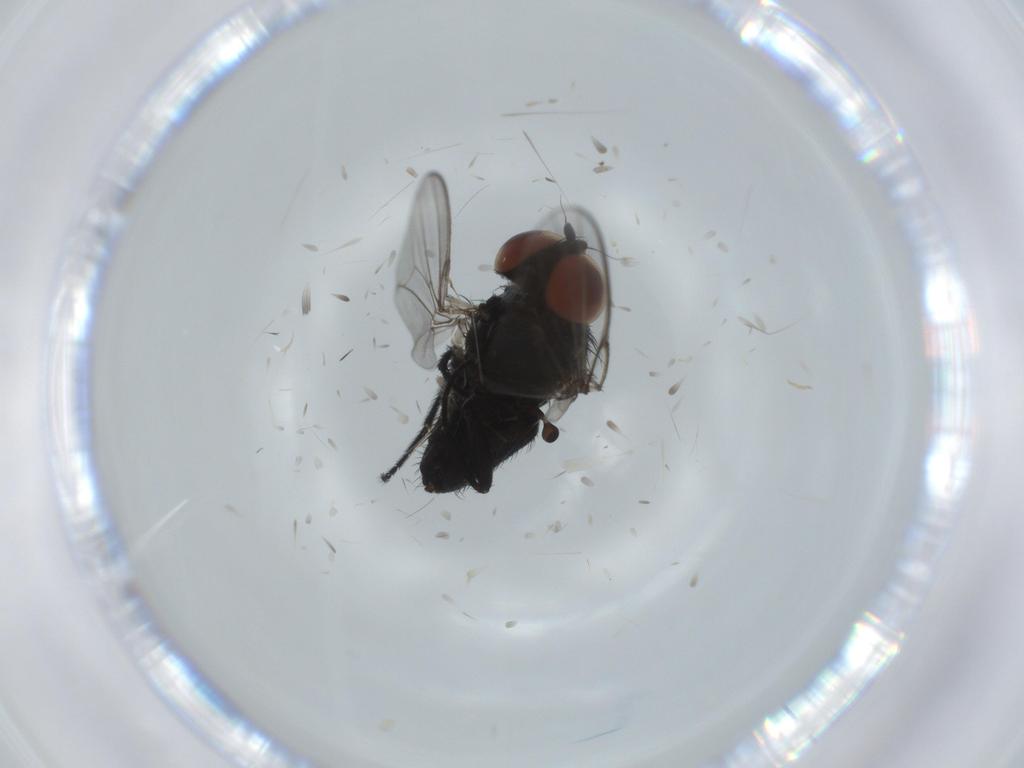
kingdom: Animalia
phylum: Arthropoda
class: Insecta
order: Diptera
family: Milichiidae
